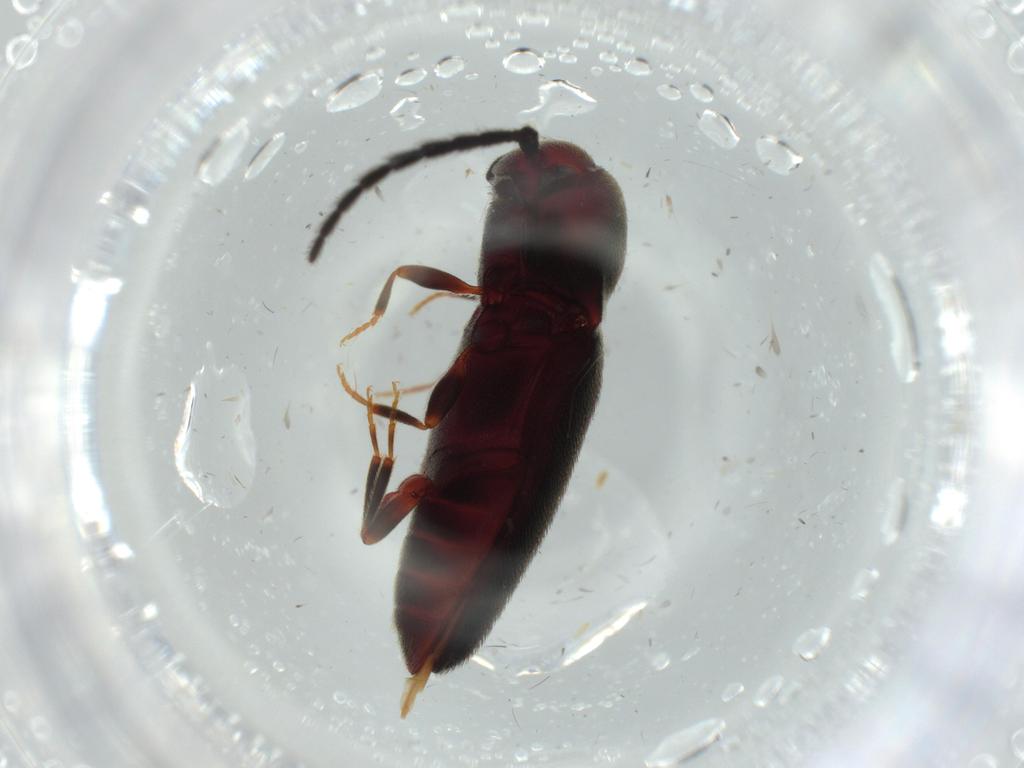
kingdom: Animalia
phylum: Arthropoda
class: Insecta
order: Coleoptera
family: Eucnemidae
